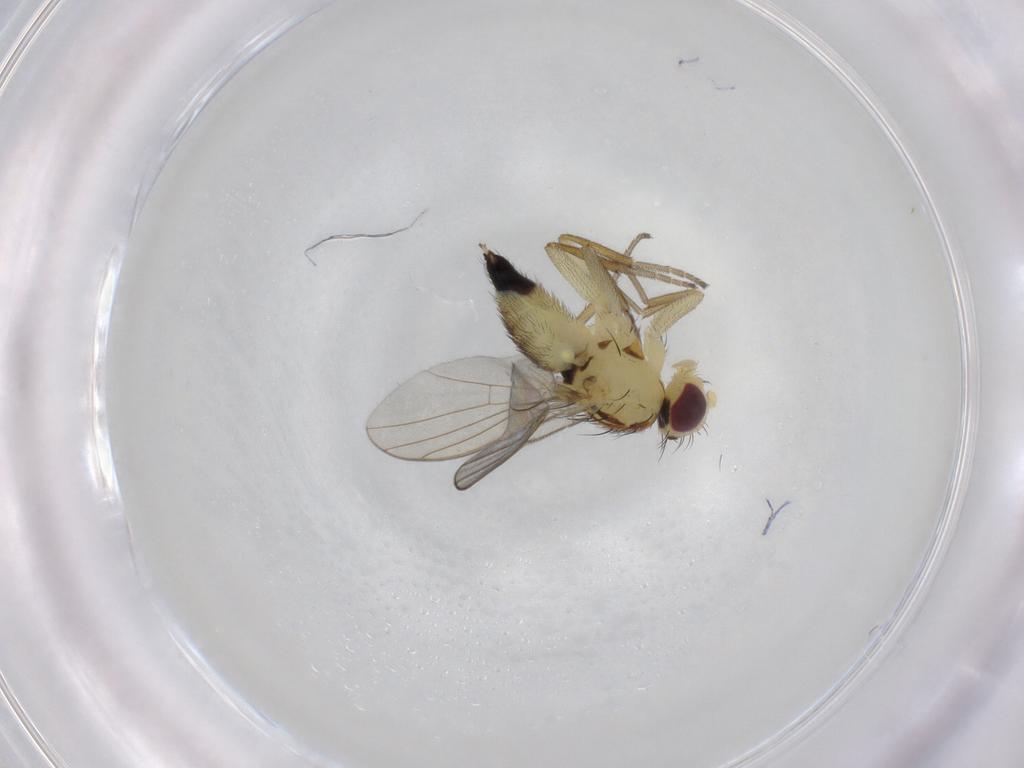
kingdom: Animalia
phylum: Arthropoda
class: Insecta
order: Diptera
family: Agromyzidae
